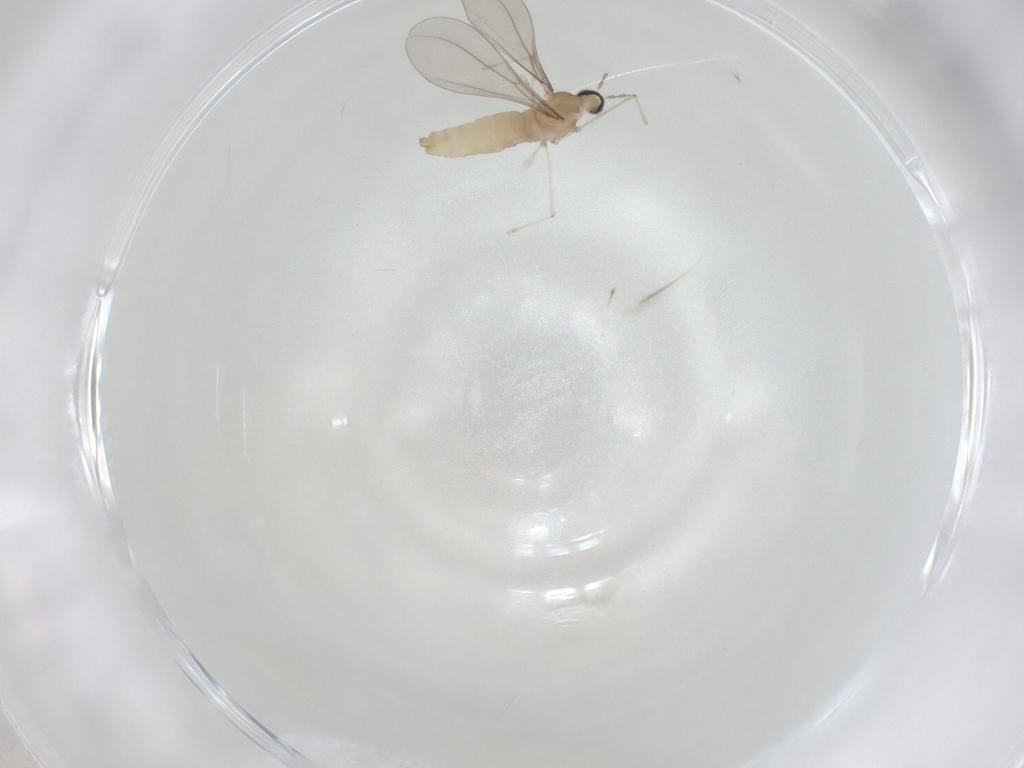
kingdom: Animalia
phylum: Arthropoda
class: Insecta
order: Diptera
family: Cecidomyiidae
